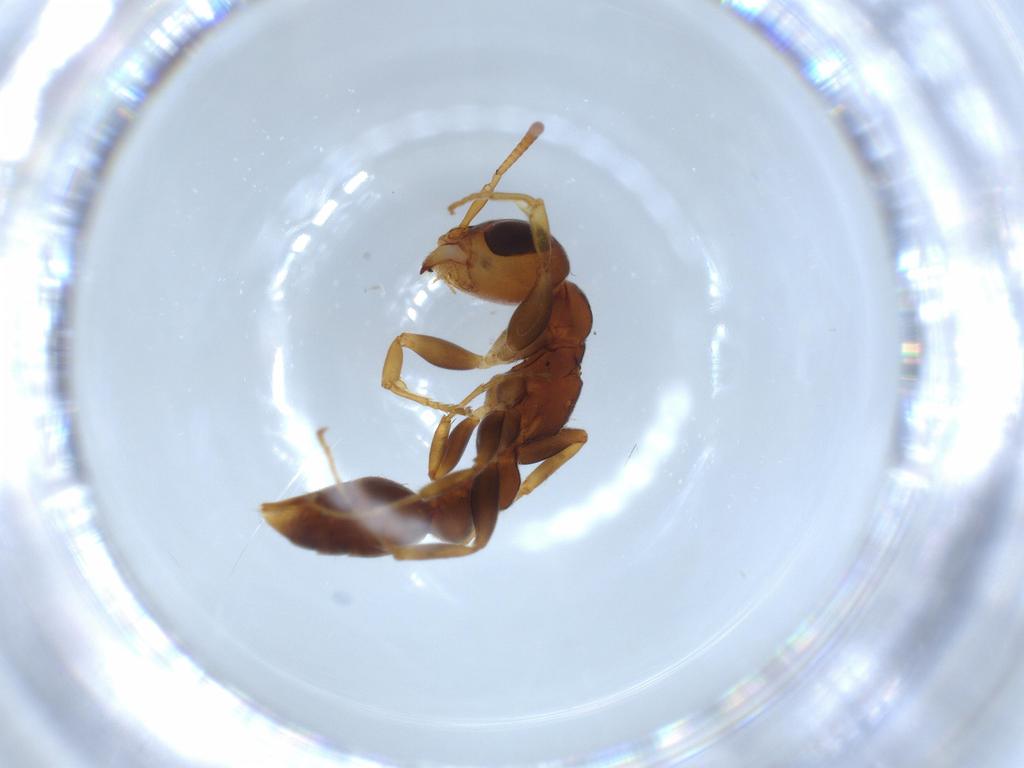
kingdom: Animalia
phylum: Arthropoda
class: Insecta
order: Hymenoptera
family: Formicidae
